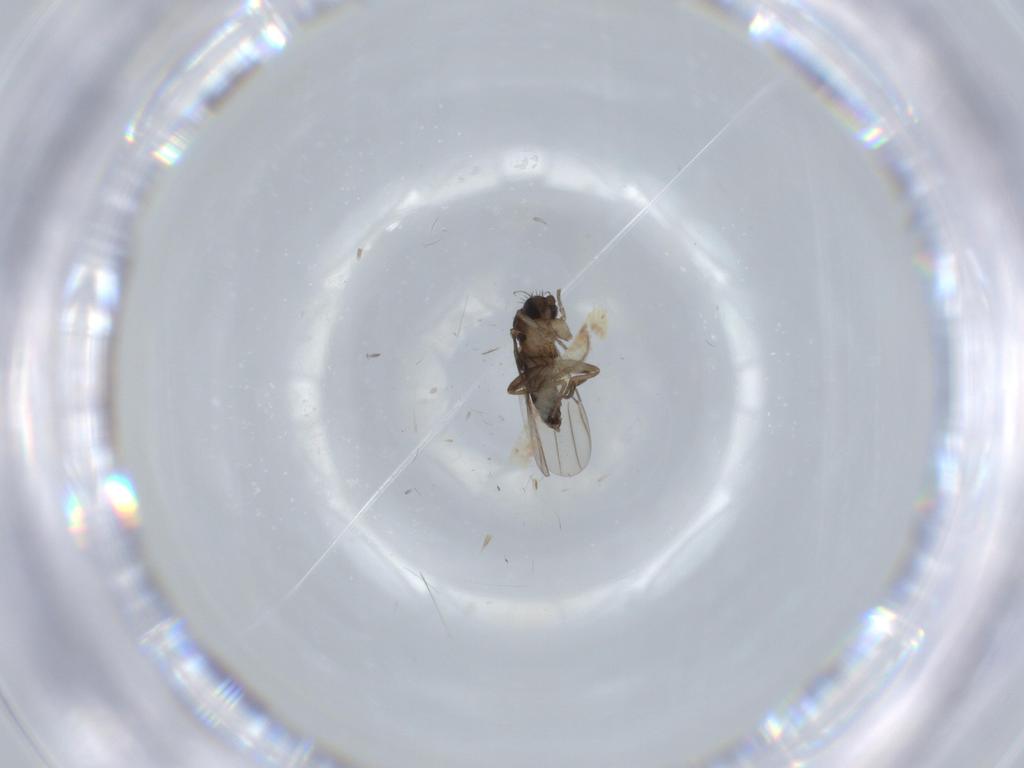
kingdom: Animalia
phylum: Arthropoda
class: Insecta
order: Diptera
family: Phoridae
